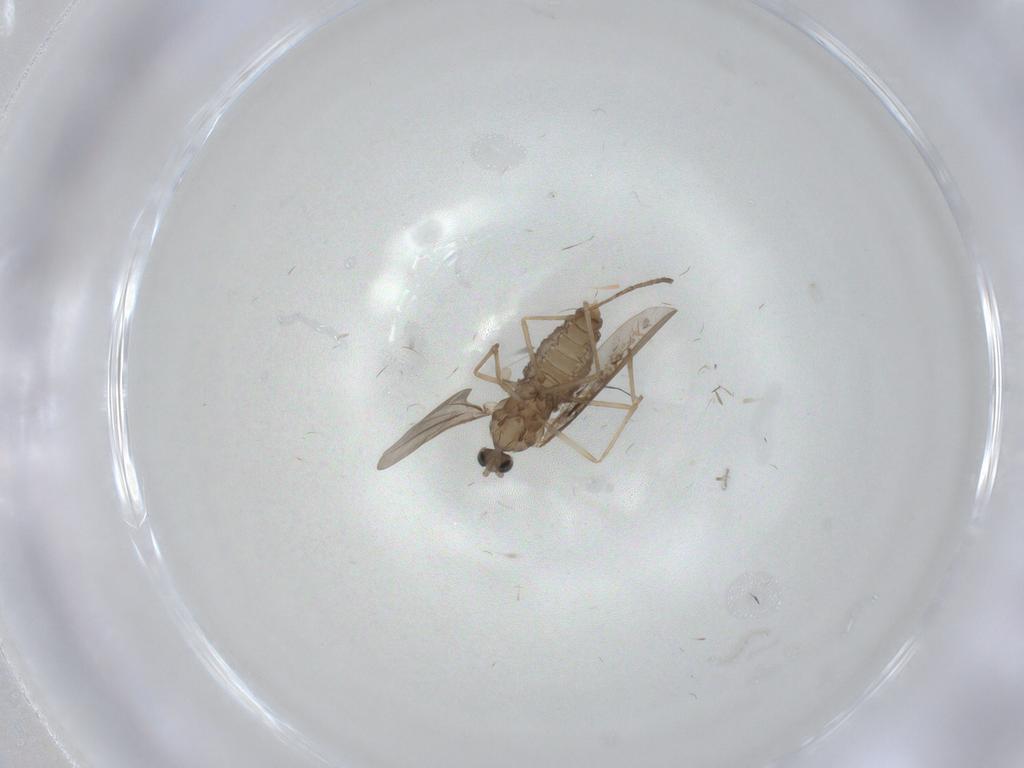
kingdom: Animalia
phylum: Arthropoda
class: Insecta
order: Diptera
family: Cecidomyiidae
